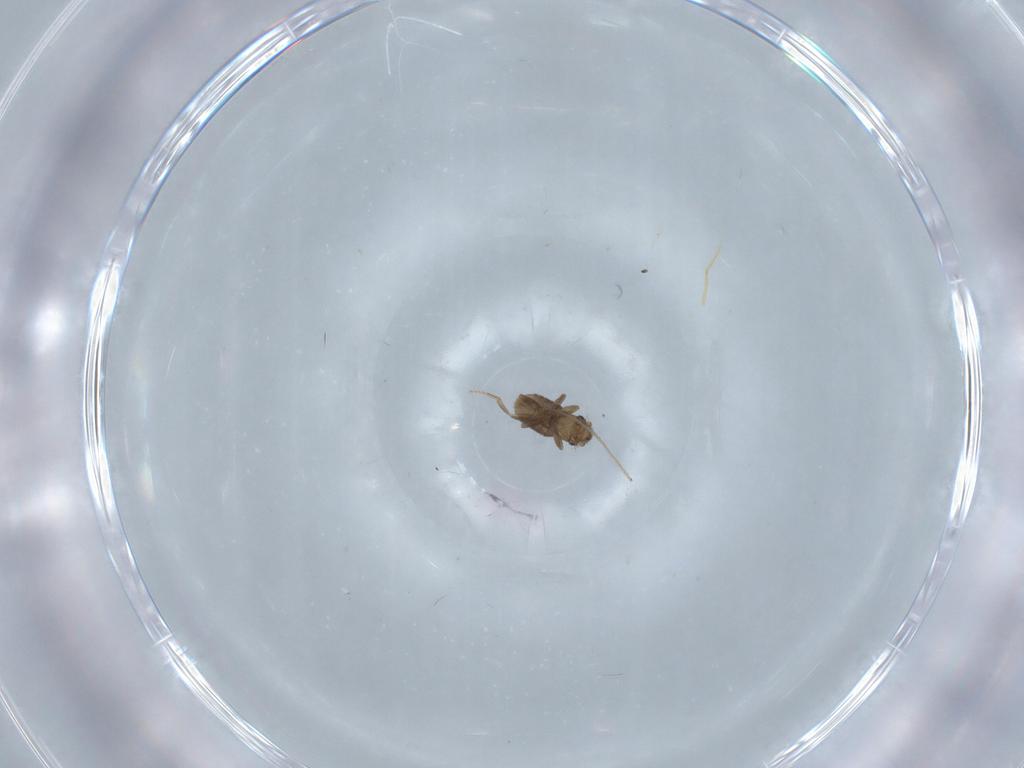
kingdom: Animalia
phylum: Arthropoda
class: Insecta
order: Diptera
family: Chironomidae
